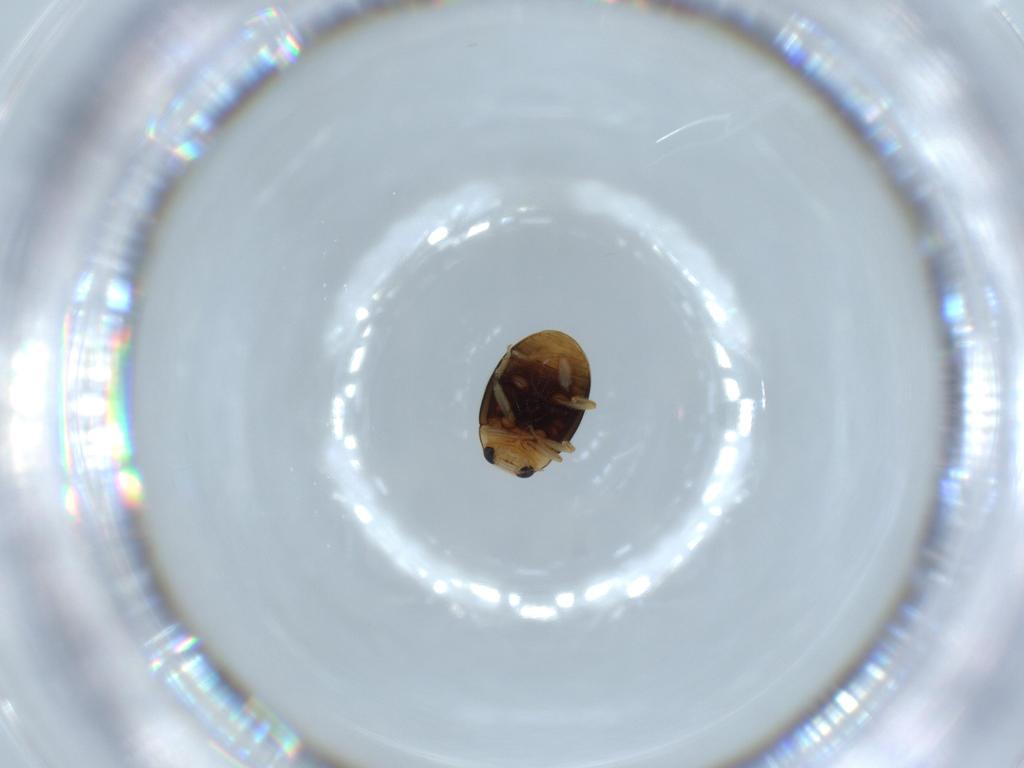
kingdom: Animalia
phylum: Arthropoda
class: Insecta
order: Coleoptera
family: Coccinellidae
